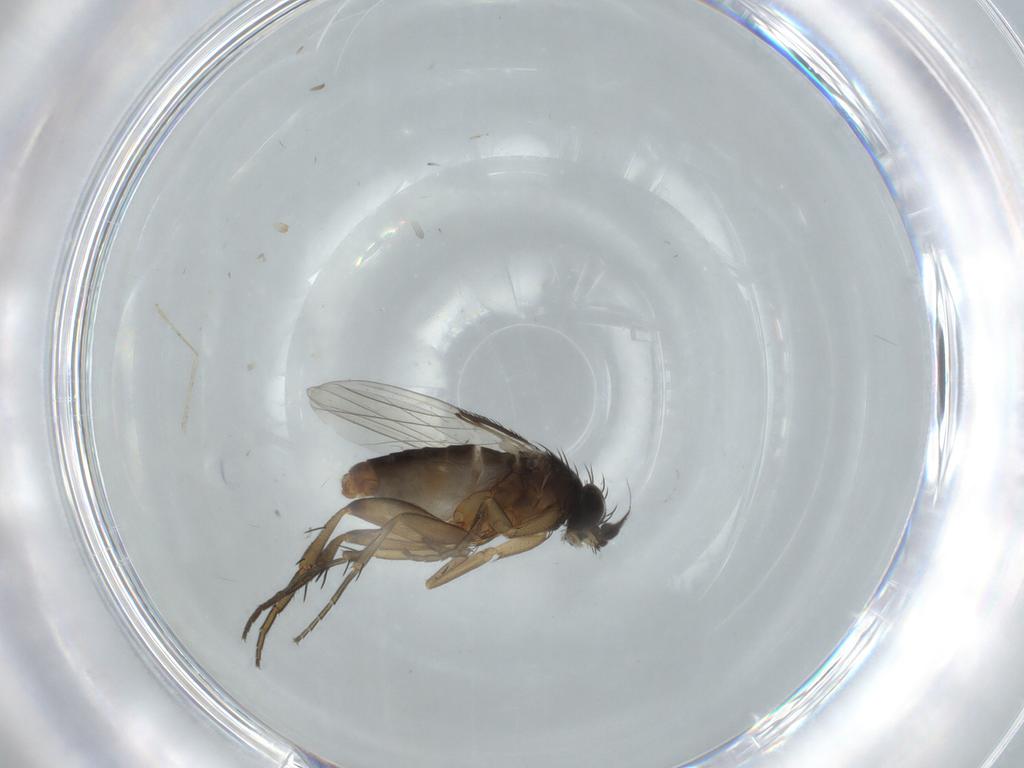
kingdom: Animalia
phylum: Arthropoda
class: Insecta
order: Diptera
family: Phoridae
